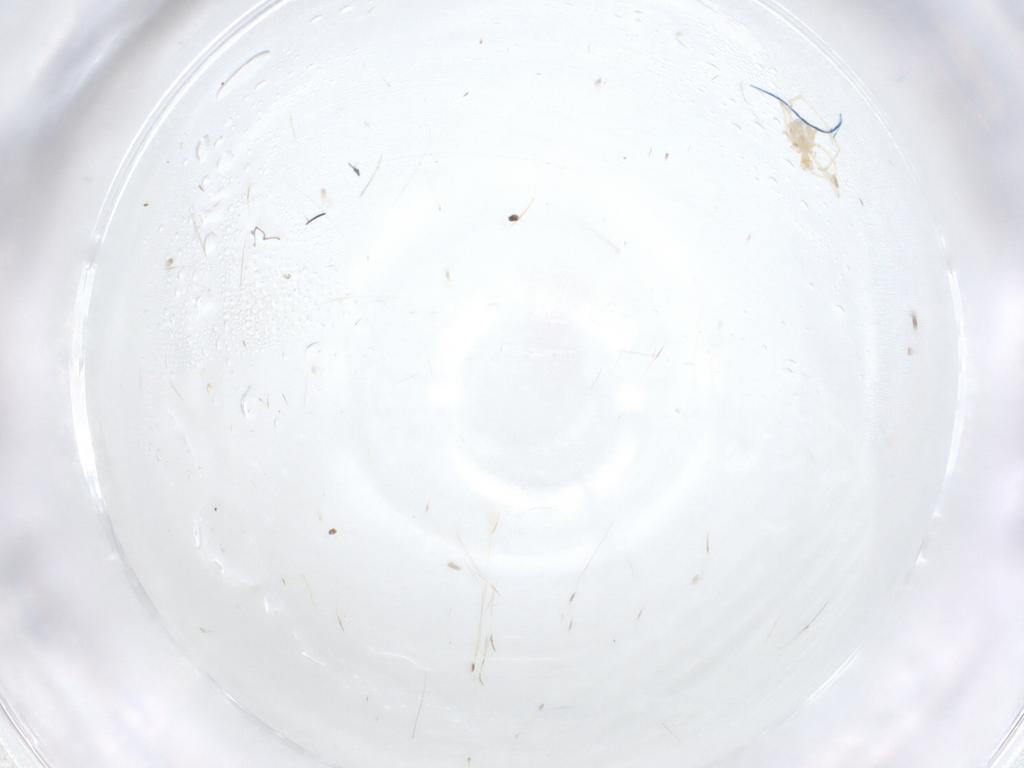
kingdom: Animalia
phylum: Arthropoda
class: Arachnida
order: Trombidiformes
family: Erythraeidae
